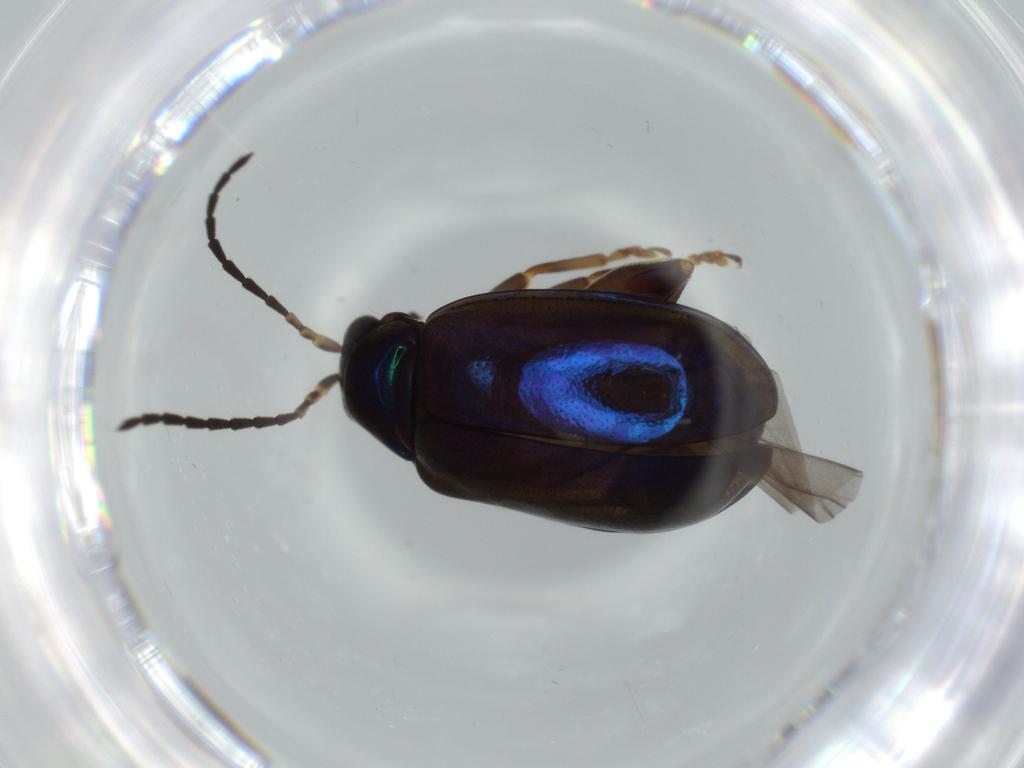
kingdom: Animalia
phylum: Arthropoda
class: Insecta
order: Coleoptera
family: Chrysomelidae
